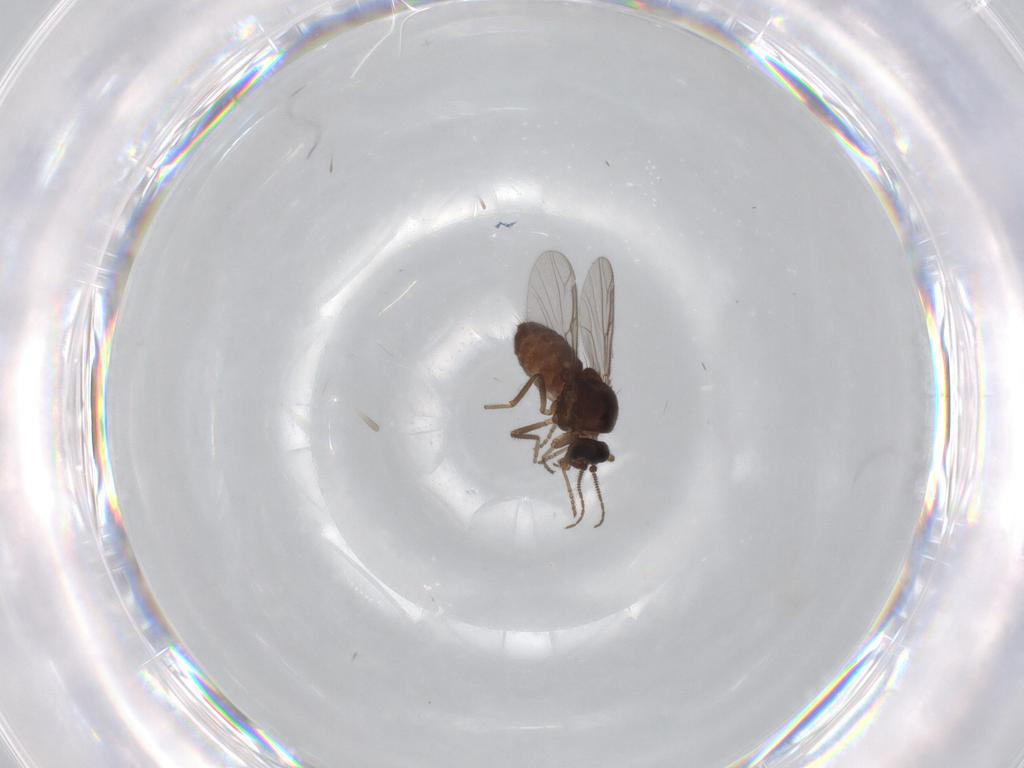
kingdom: Animalia
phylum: Arthropoda
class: Insecta
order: Diptera
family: Ceratopogonidae
